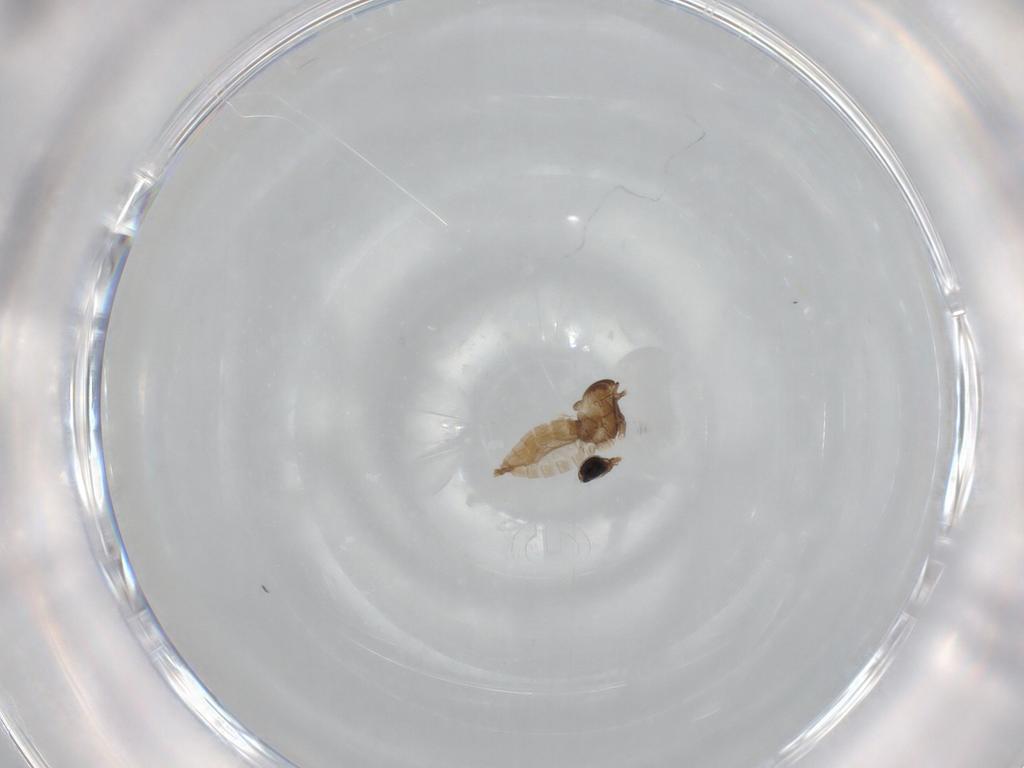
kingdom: Animalia
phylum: Arthropoda
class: Insecta
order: Diptera
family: Cecidomyiidae
